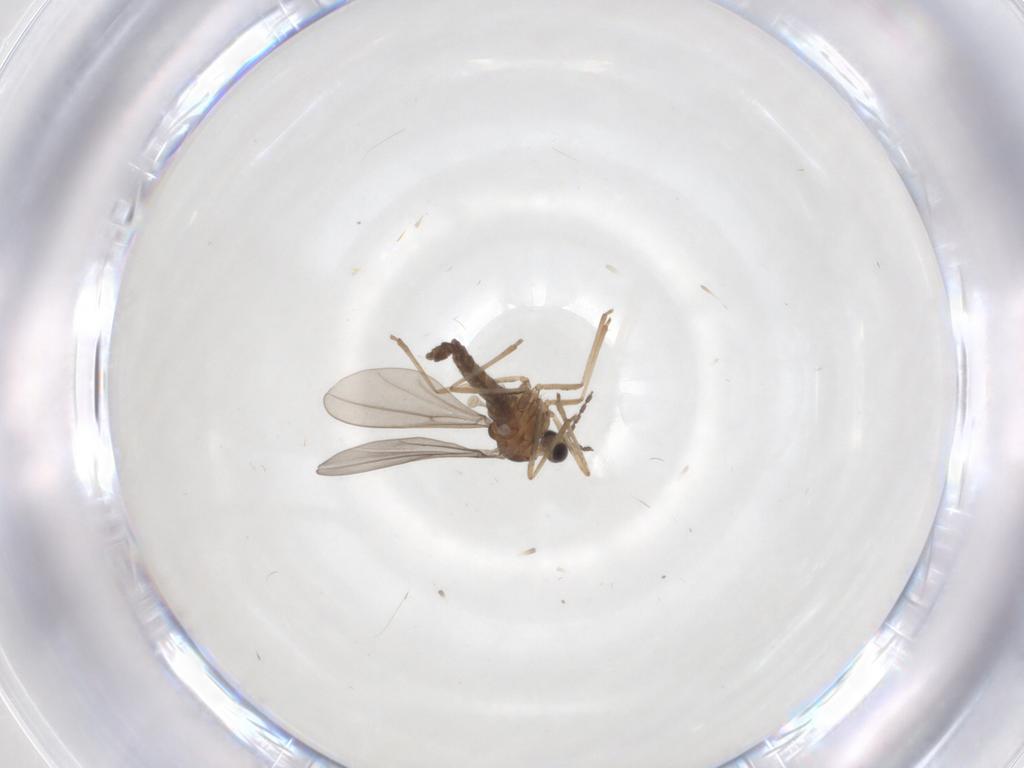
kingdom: Animalia
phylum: Arthropoda
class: Insecta
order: Diptera
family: Cecidomyiidae
